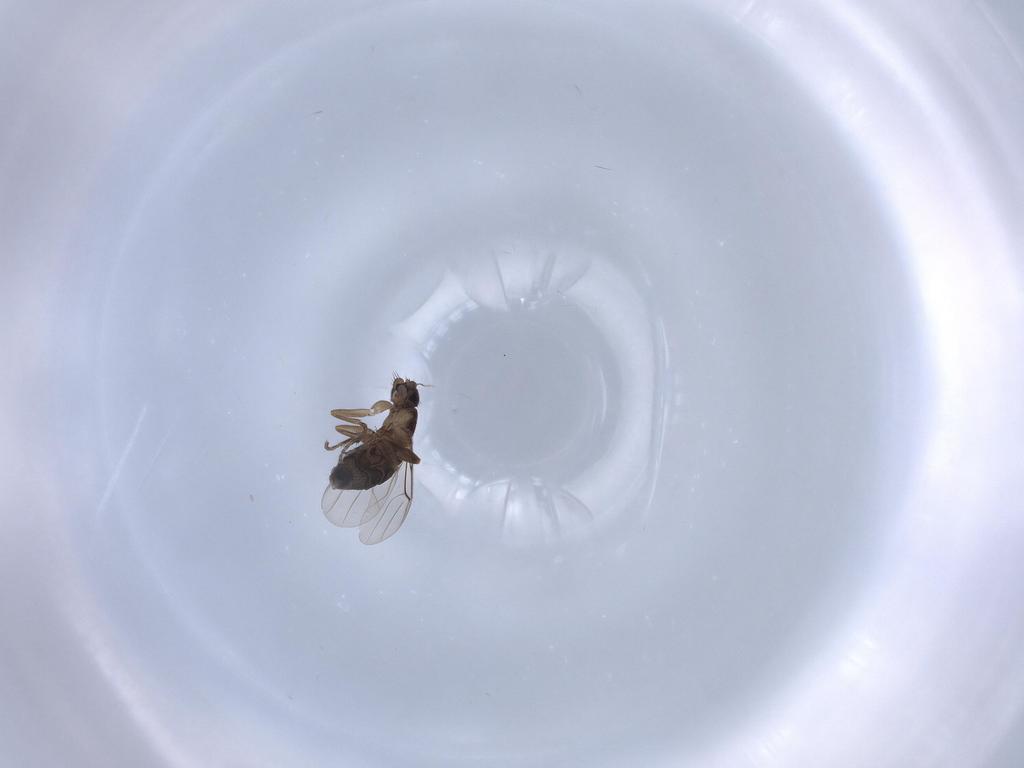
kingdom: Animalia
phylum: Arthropoda
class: Insecta
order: Diptera
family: Phoridae
